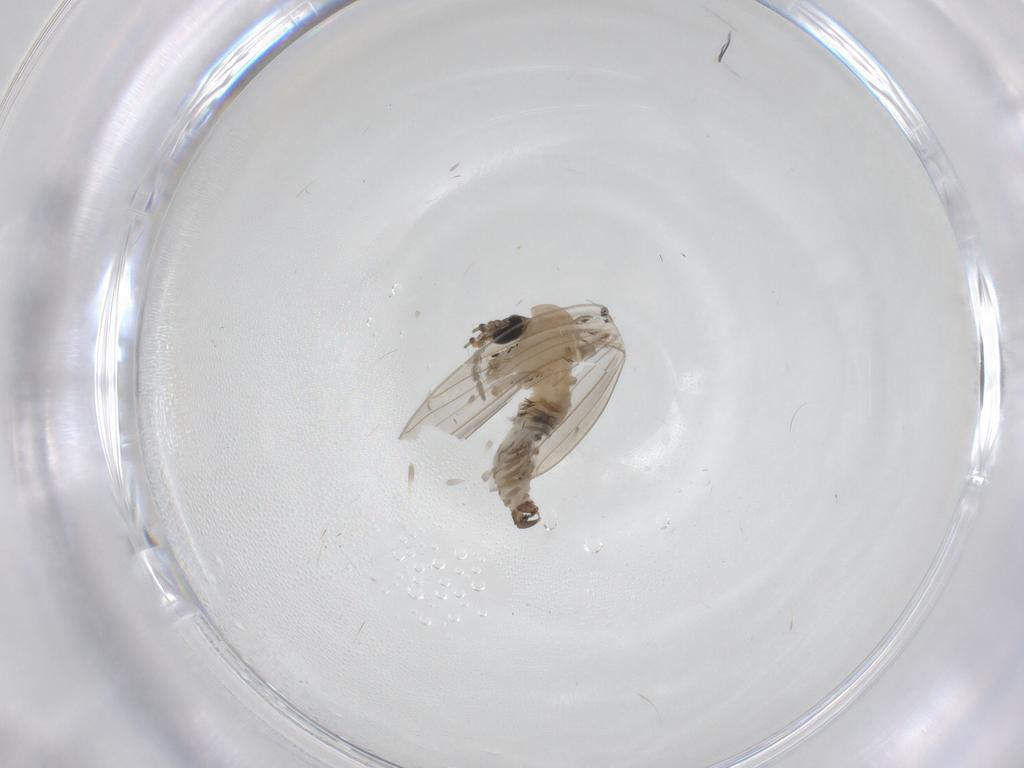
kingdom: Animalia
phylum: Arthropoda
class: Insecta
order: Diptera
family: Psychodidae
